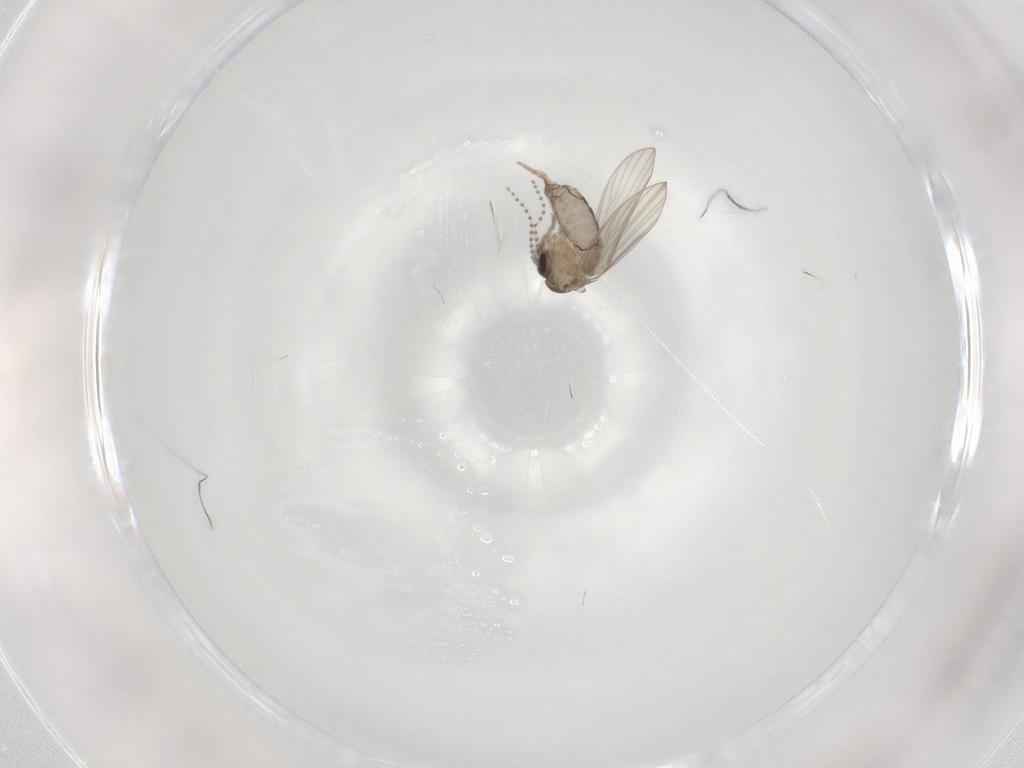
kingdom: Animalia
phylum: Arthropoda
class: Insecta
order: Diptera
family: Psychodidae
